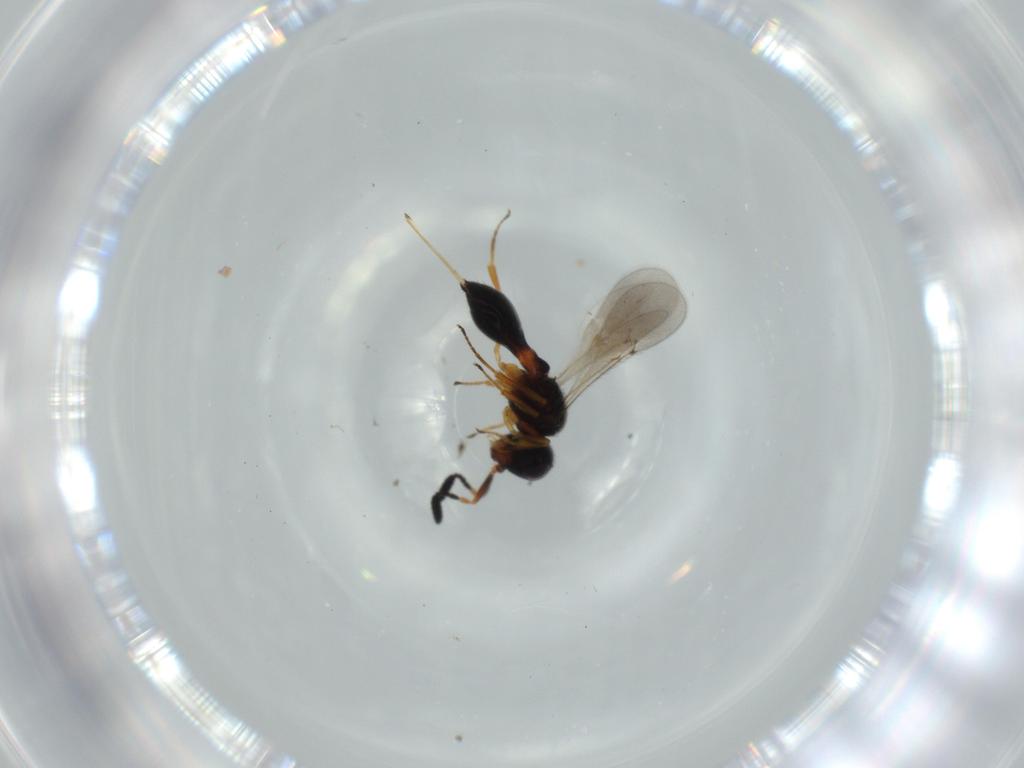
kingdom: Animalia
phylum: Arthropoda
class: Insecta
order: Hymenoptera
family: Scelionidae
